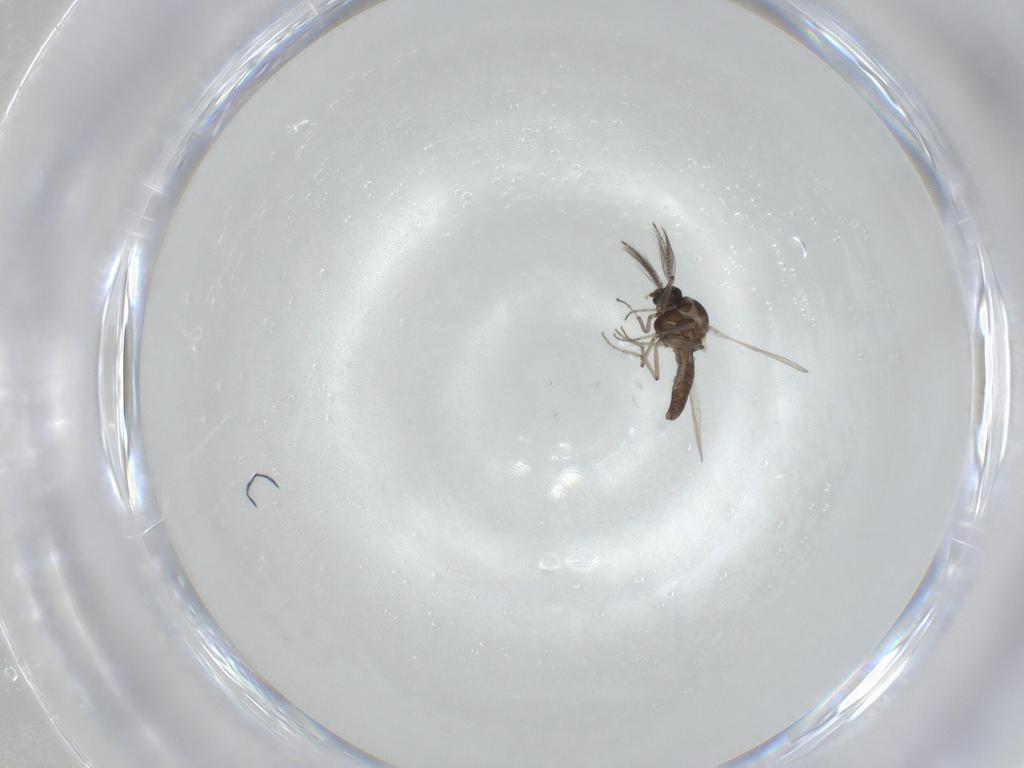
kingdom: Animalia
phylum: Arthropoda
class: Insecta
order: Diptera
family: Ceratopogonidae
